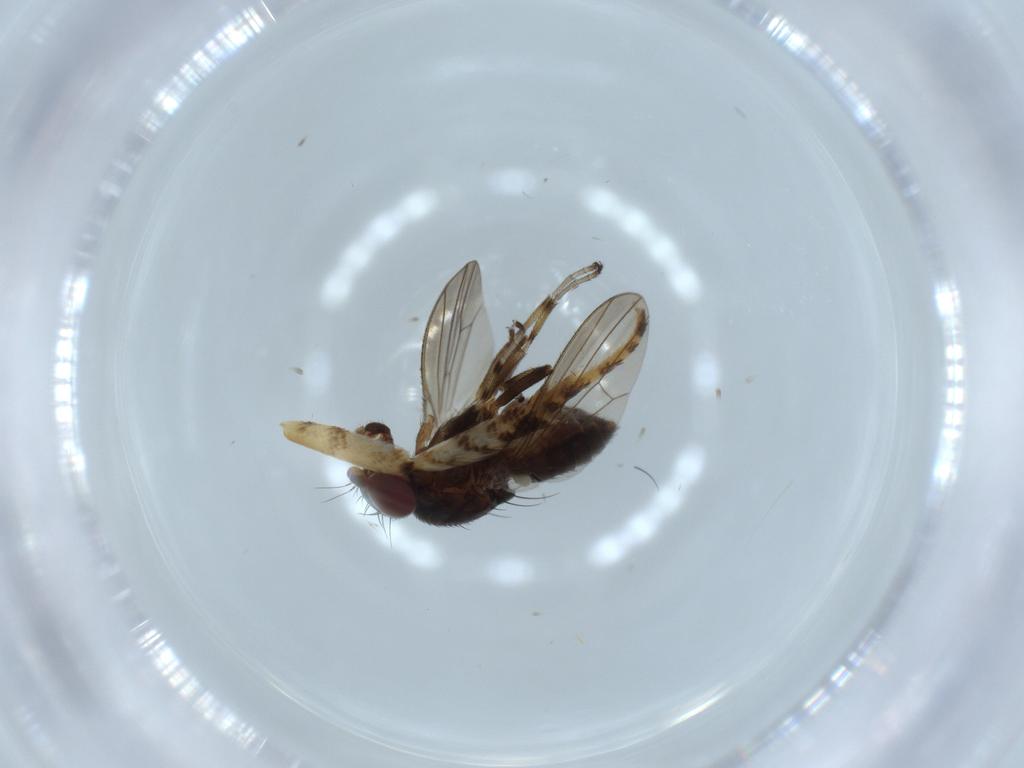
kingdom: Animalia
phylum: Arthropoda
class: Insecta
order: Diptera
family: Heleomyzidae
